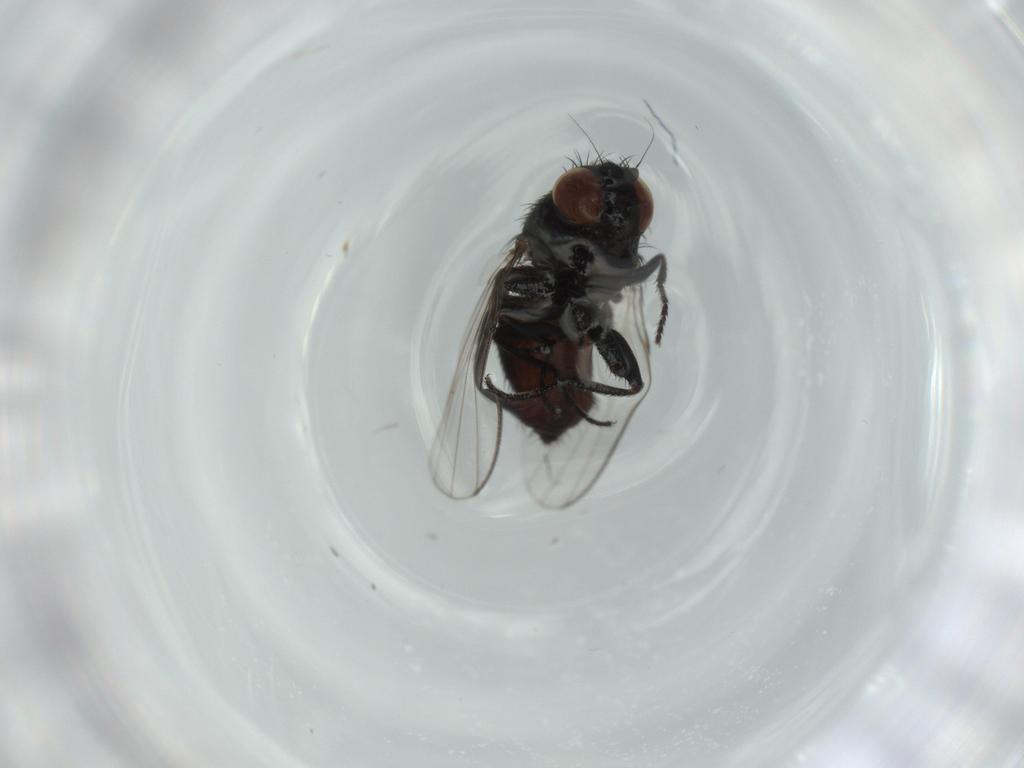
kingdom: Animalia
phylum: Arthropoda
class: Insecta
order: Diptera
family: Milichiidae
